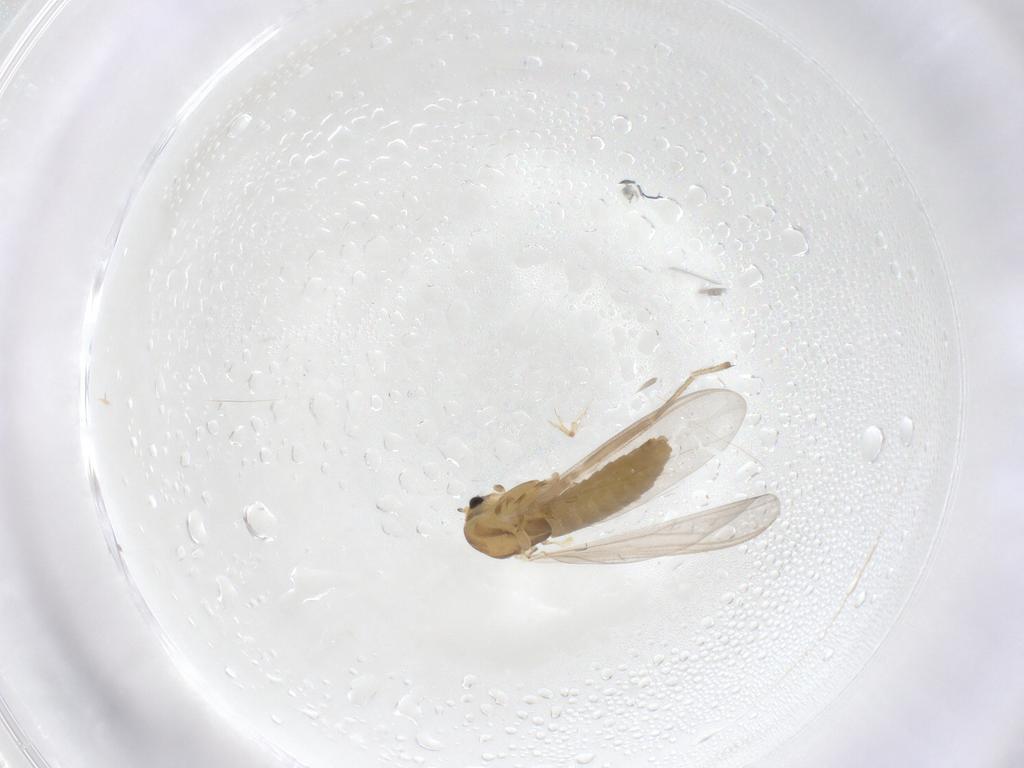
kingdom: Animalia
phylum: Arthropoda
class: Insecta
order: Diptera
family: Chironomidae
